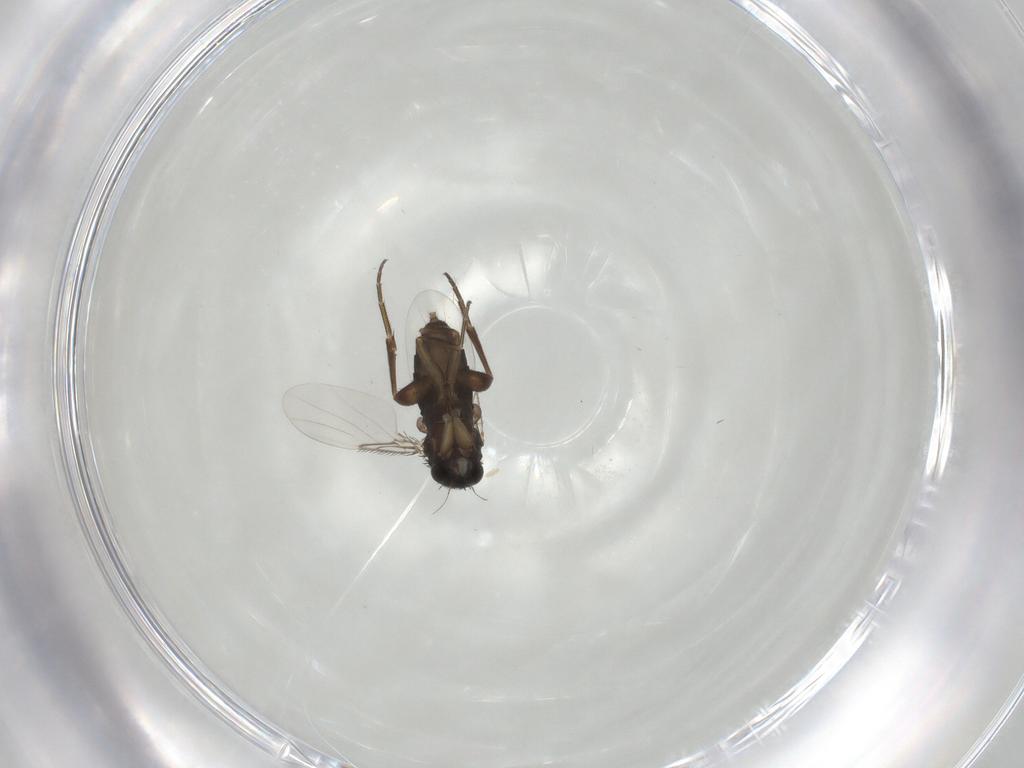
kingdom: Animalia
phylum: Arthropoda
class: Insecta
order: Diptera
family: Phoridae
